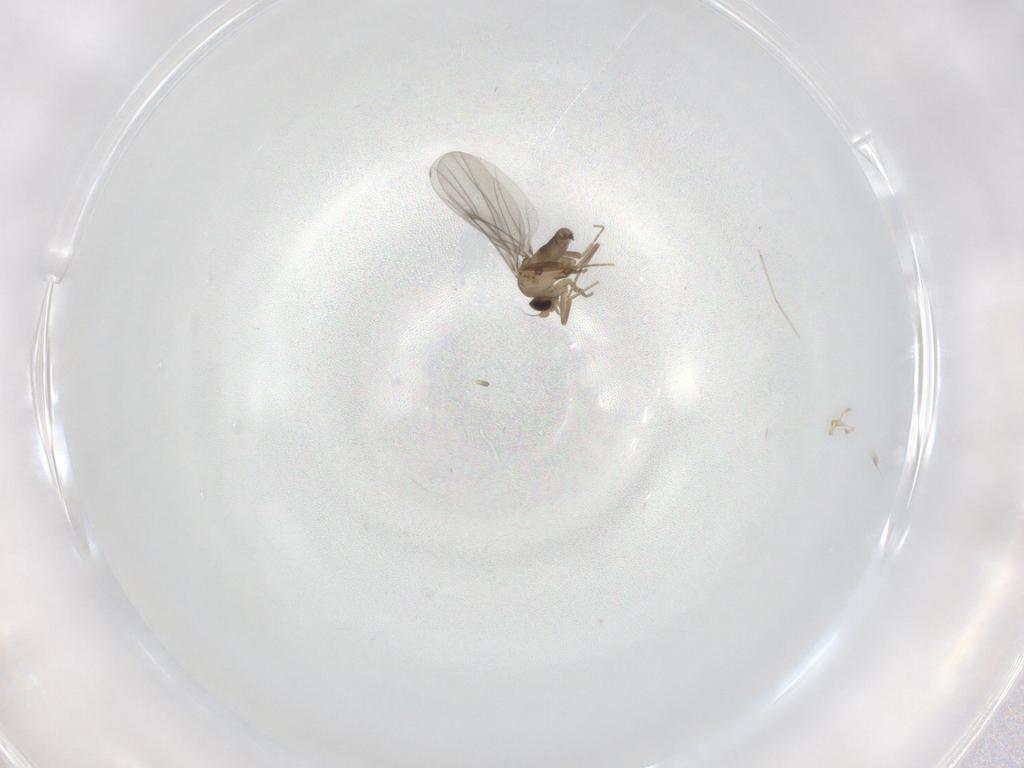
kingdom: Animalia
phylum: Arthropoda
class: Insecta
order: Diptera
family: Cecidomyiidae
